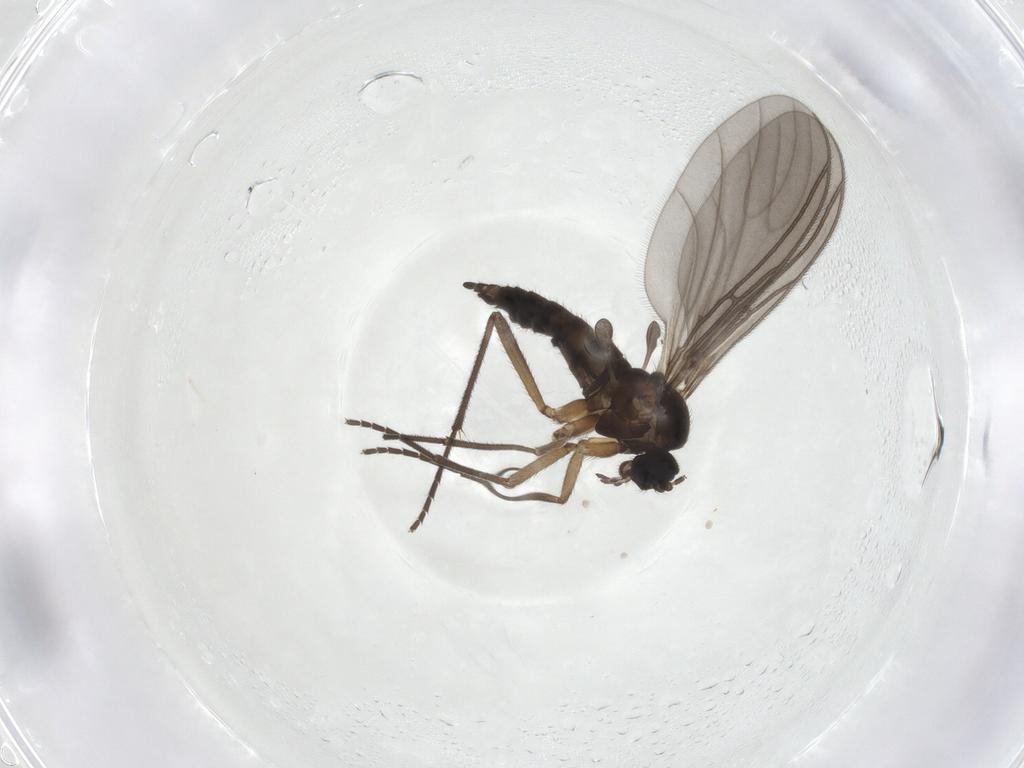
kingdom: Animalia
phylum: Arthropoda
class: Insecta
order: Diptera
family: Sciaridae
